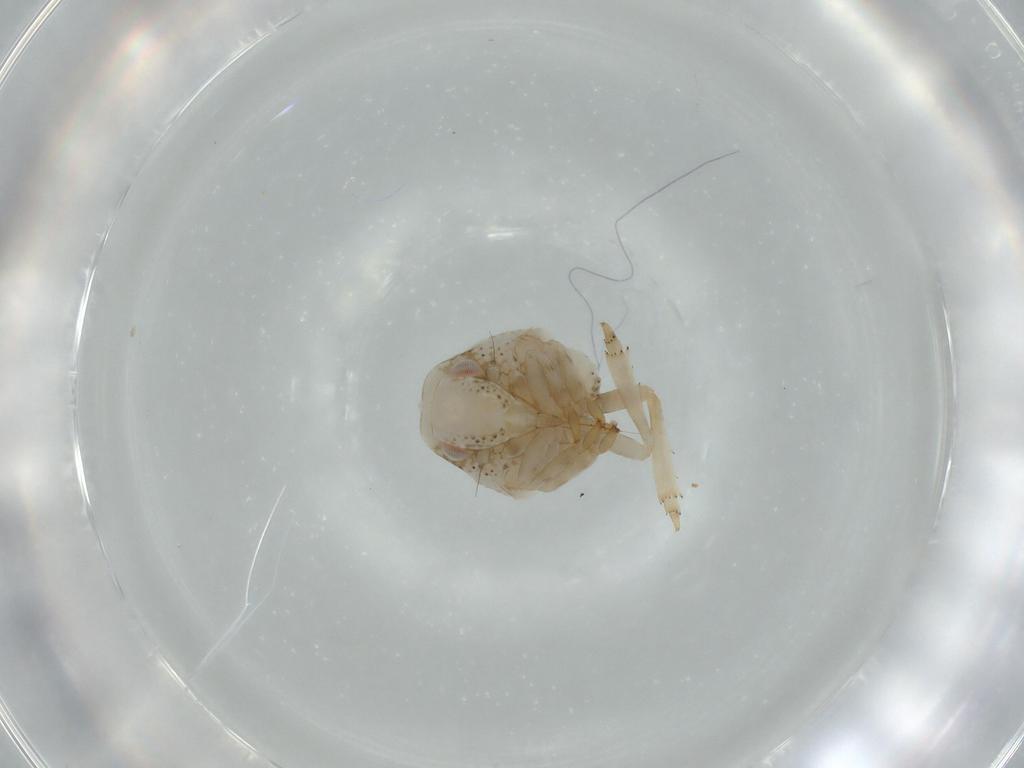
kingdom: Animalia
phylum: Arthropoda
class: Insecta
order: Hemiptera
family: Acanaloniidae
